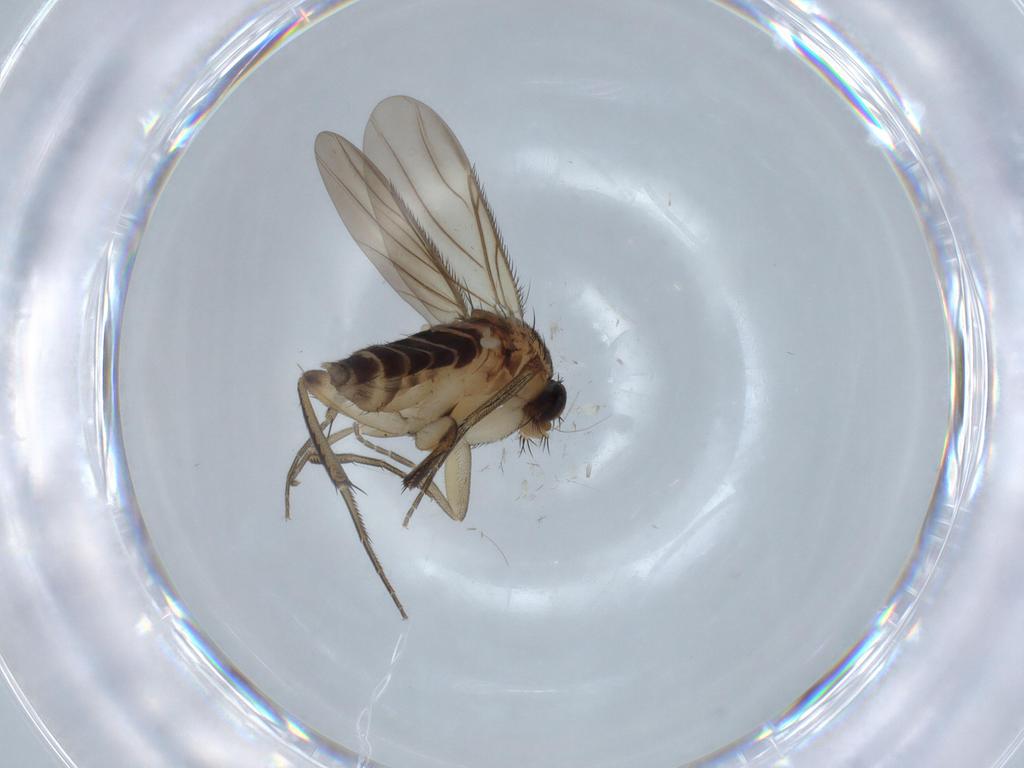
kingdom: Animalia
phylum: Arthropoda
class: Insecta
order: Diptera
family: Phoridae
